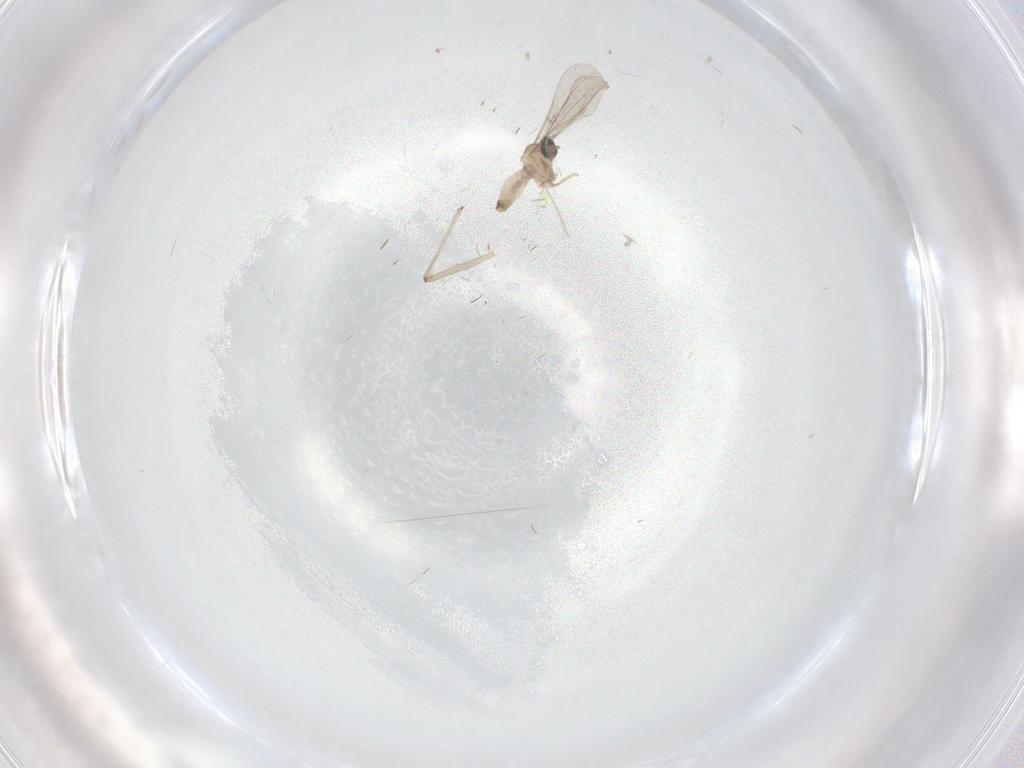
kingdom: Animalia
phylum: Arthropoda
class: Insecta
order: Diptera
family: Cecidomyiidae
